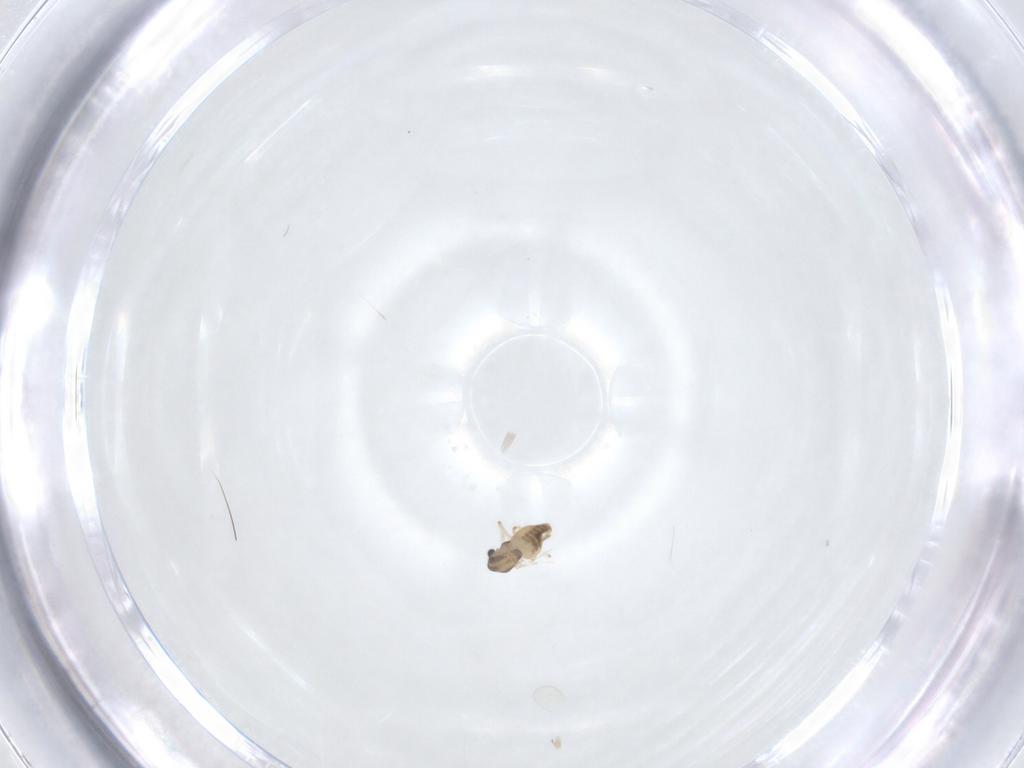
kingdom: Animalia
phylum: Arthropoda
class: Insecta
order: Diptera
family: Chironomidae
